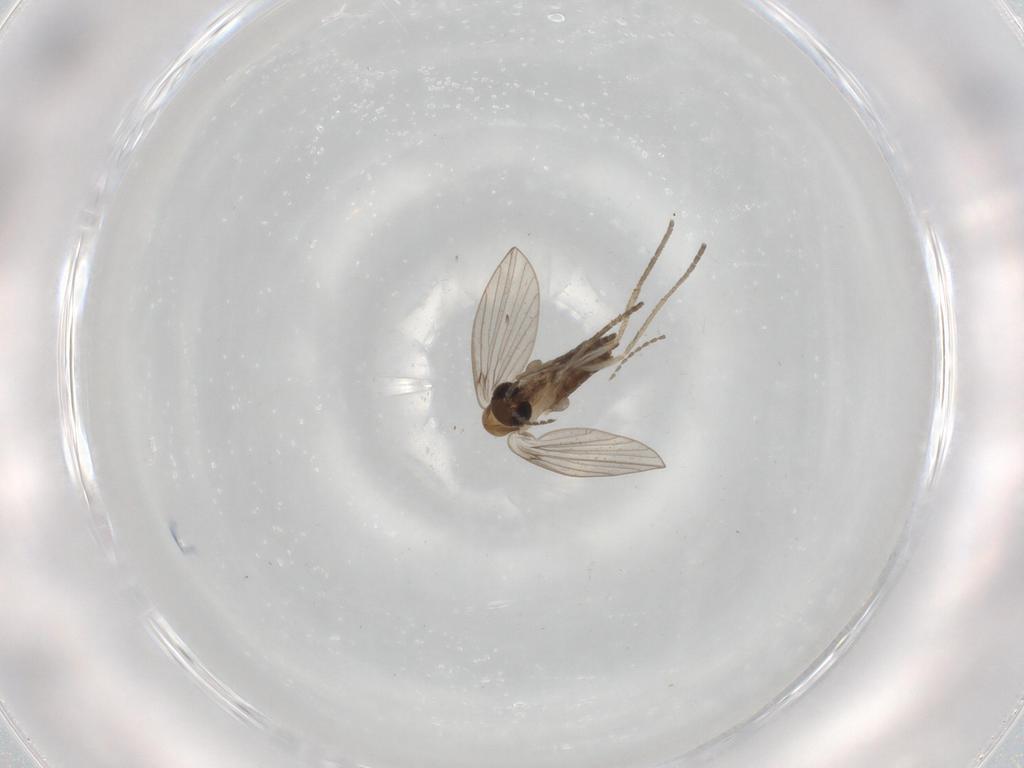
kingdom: Animalia
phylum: Arthropoda
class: Insecta
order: Diptera
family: Psychodidae
